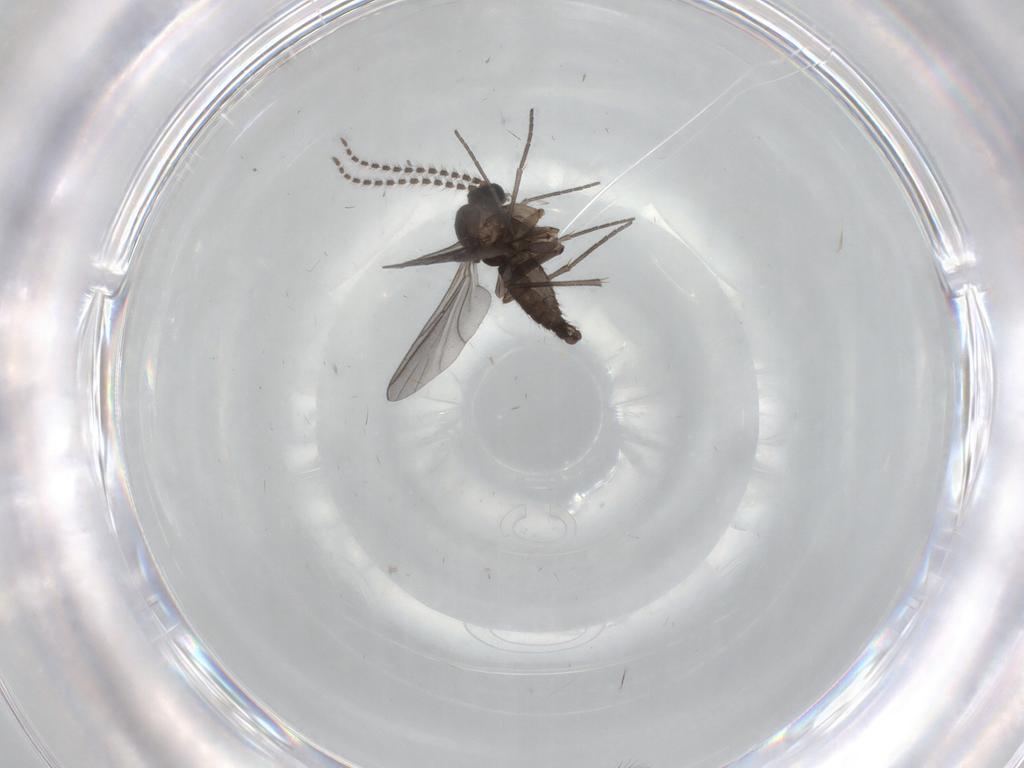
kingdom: Animalia
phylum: Arthropoda
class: Insecta
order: Diptera
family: Sciaridae
